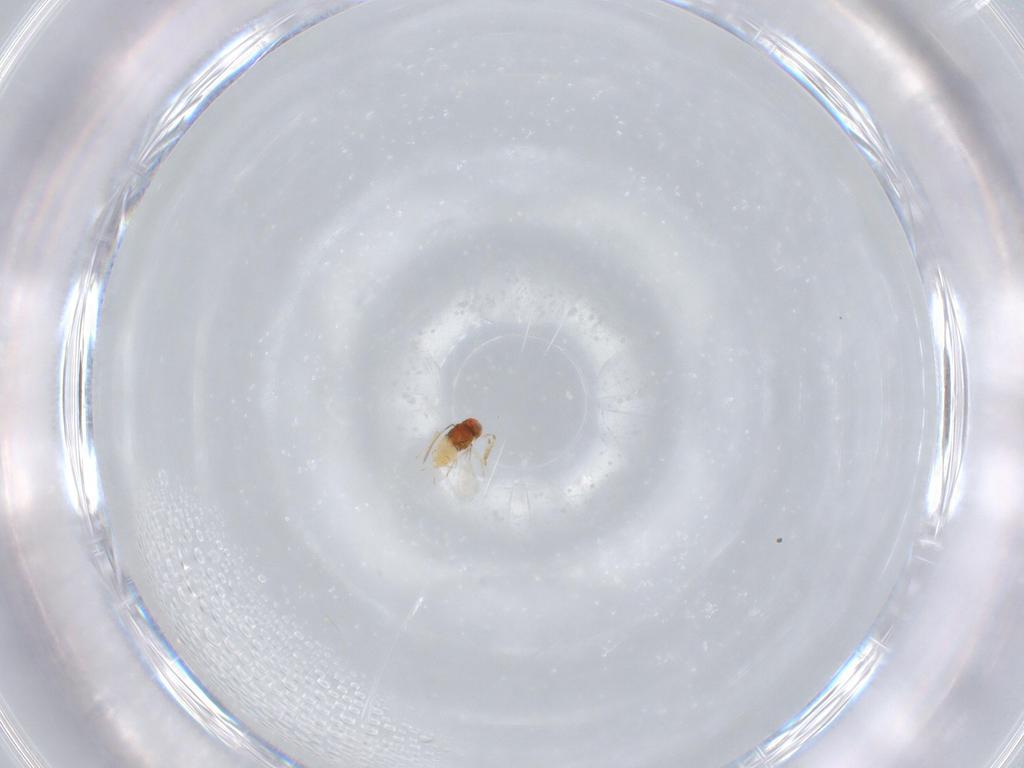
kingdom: Animalia
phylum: Arthropoda
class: Insecta
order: Hymenoptera
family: Aphelinidae
